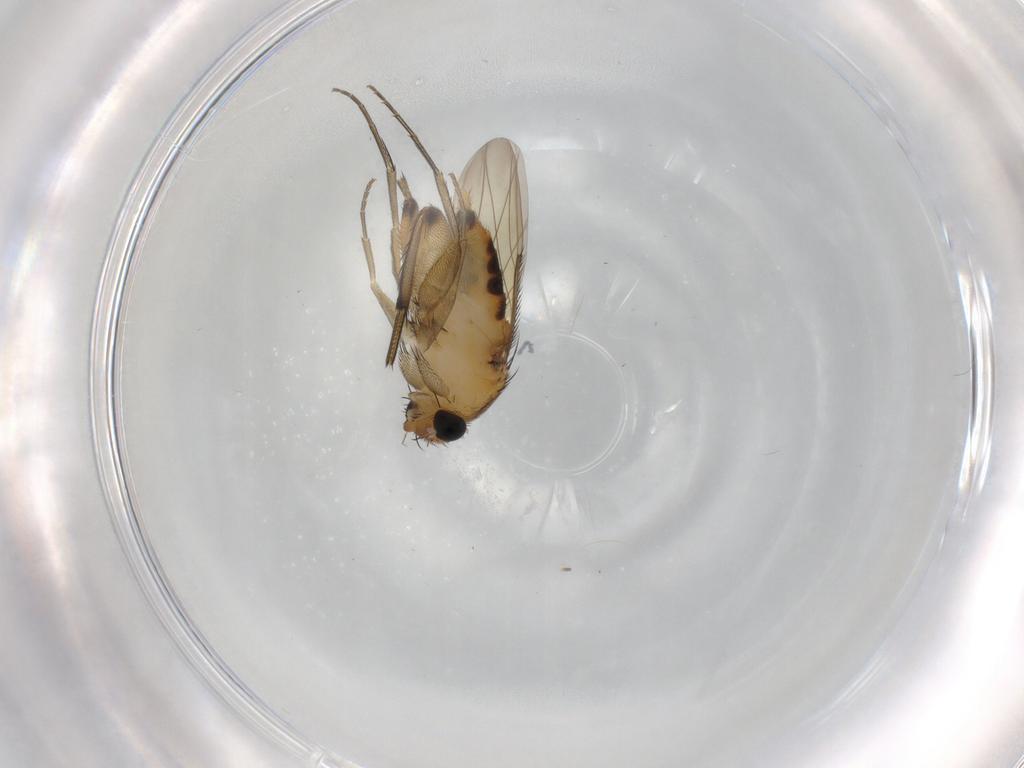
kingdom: Animalia
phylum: Arthropoda
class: Insecta
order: Diptera
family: Phoridae
